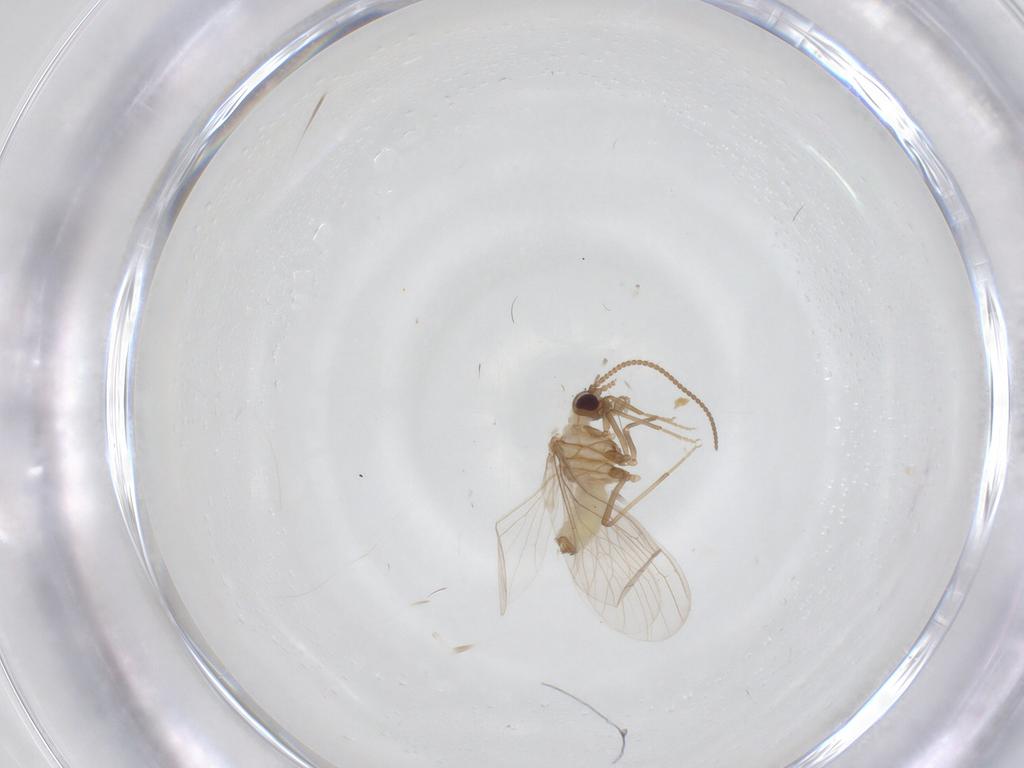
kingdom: Animalia
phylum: Arthropoda
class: Insecta
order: Neuroptera
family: Coniopterygidae
